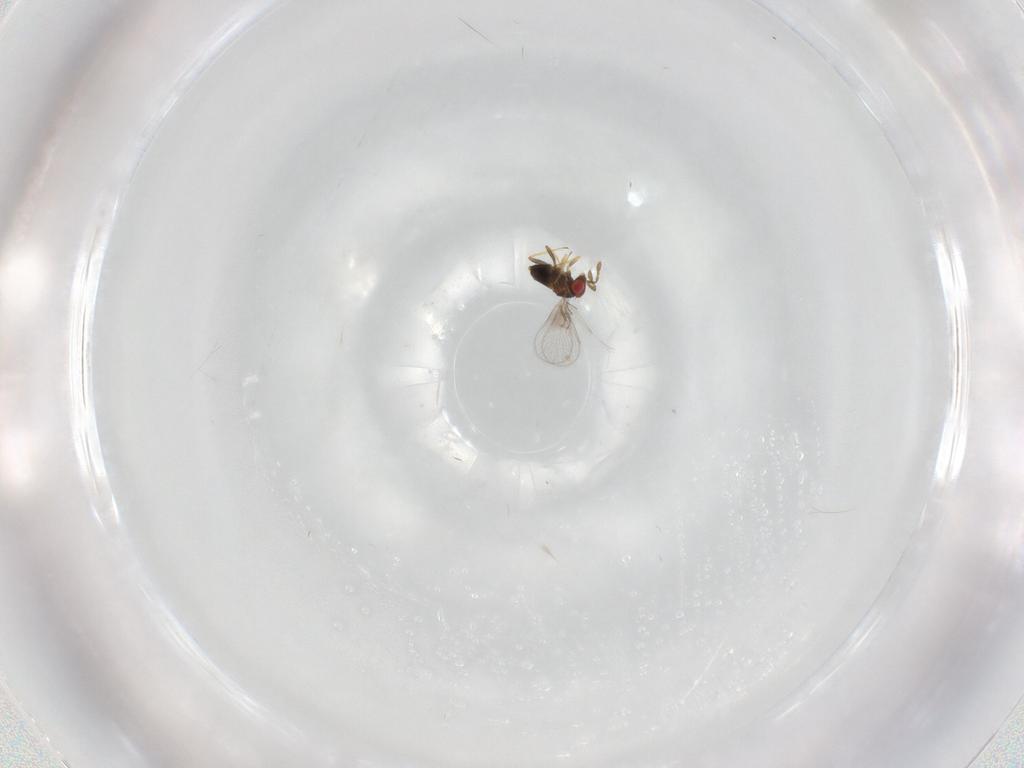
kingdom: Animalia
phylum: Arthropoda
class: Insecta
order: Hymenoptera
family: Trichogrammatidae
